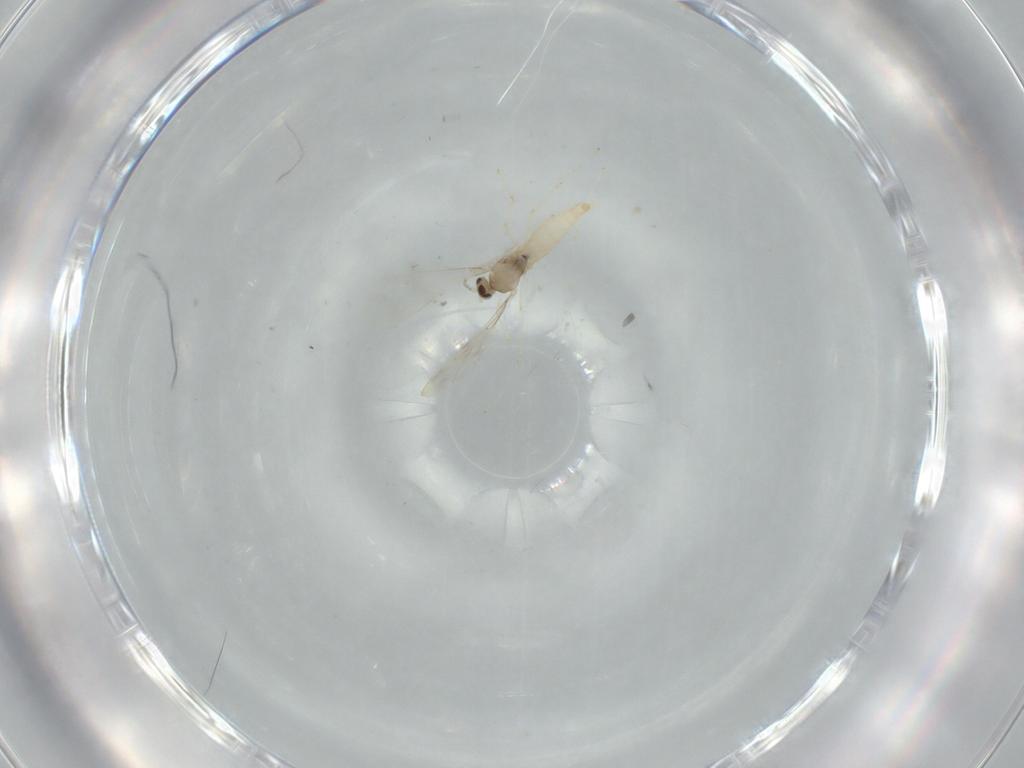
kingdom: Animalia
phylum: Arthropoda
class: Insecta
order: Diptera
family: Cecidomyiidae
